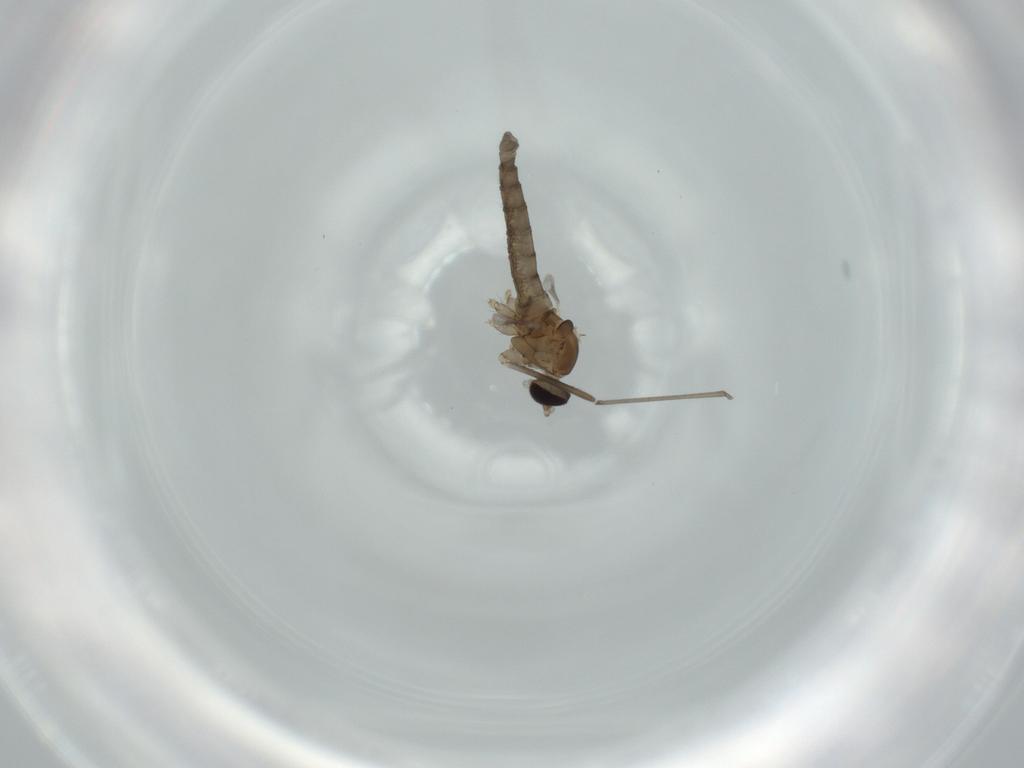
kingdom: Animalia
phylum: Arthropoda
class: Insecta
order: Diptera
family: Cecidomyiidae
